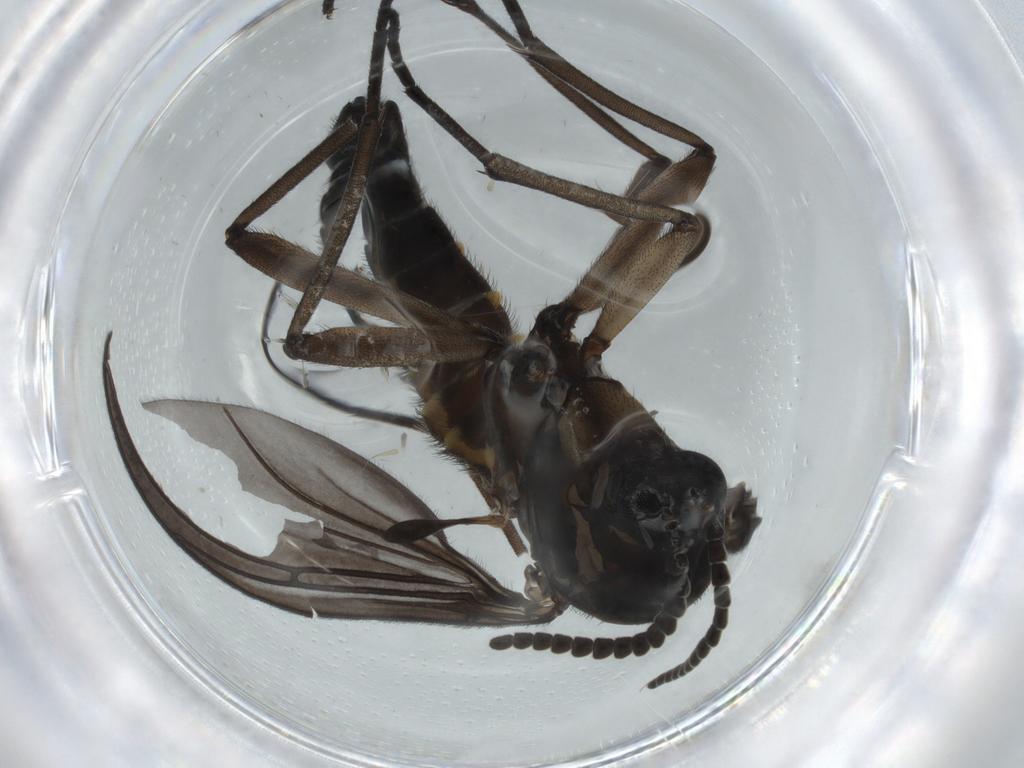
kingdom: Animalia
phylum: Arthropoda
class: Insecta
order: Diptera
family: Sciaridae
